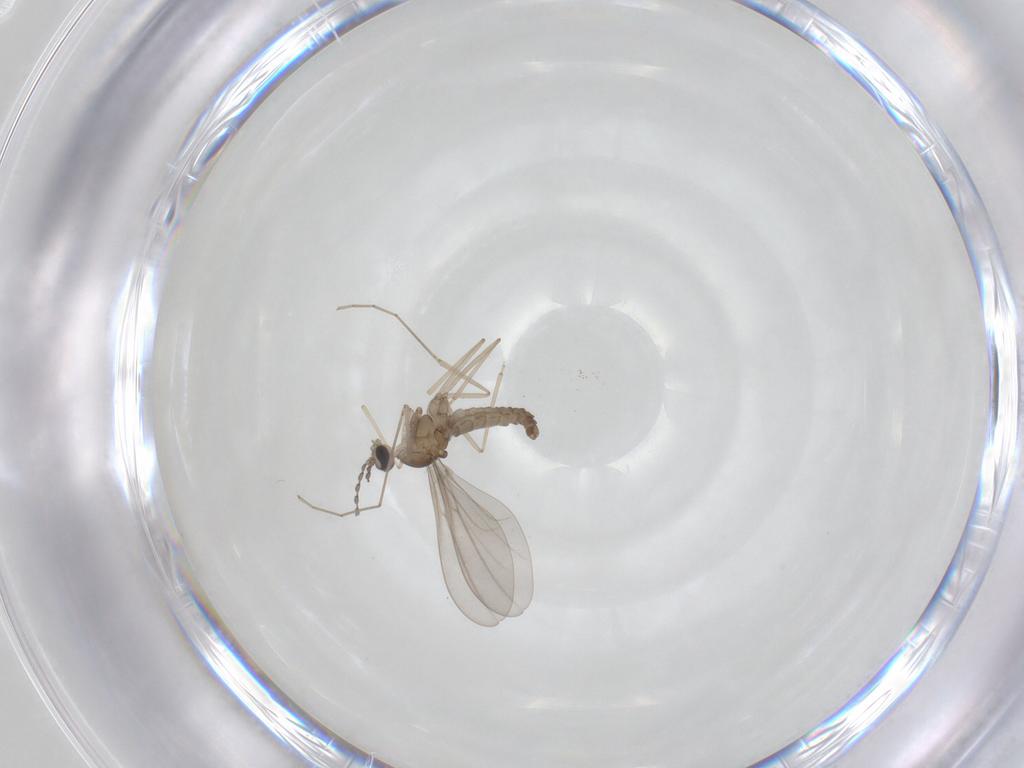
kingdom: Animalia
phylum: Arthropoda
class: Insecta
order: Diptera
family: Cecidomyiidae
